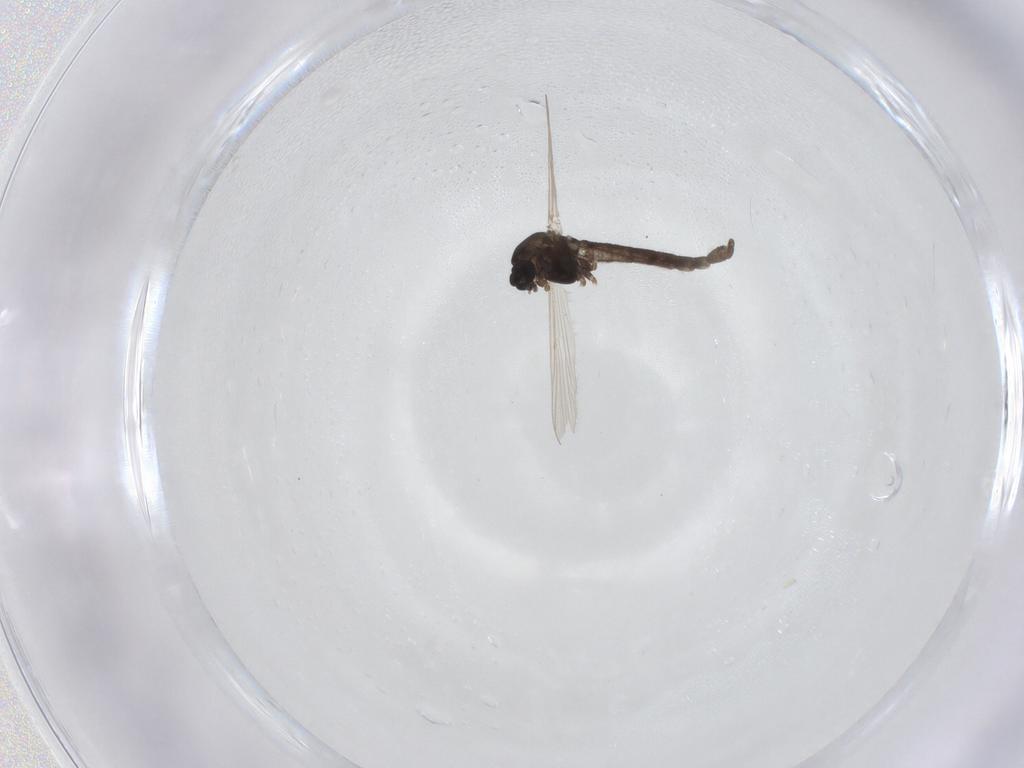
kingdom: Animalia
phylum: Arthropoda
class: Insecta
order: Diptera
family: Chironomidae
